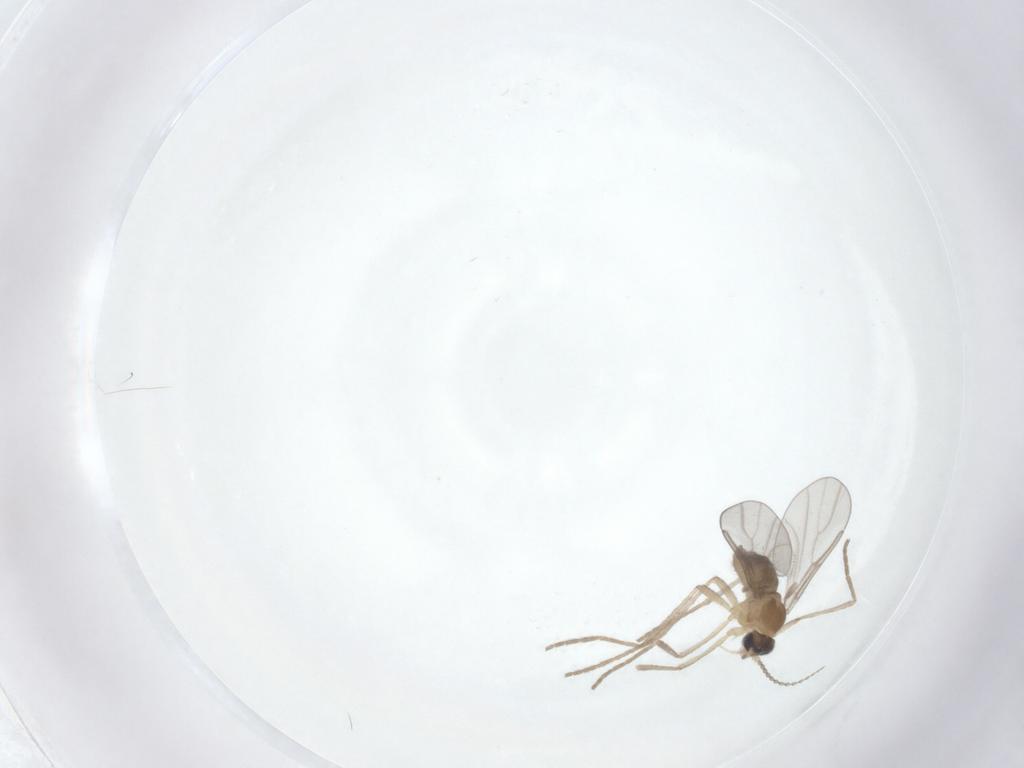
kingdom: Animalia
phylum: Arthropoda
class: Insecta
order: Diptera
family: Cecidomyiidae
